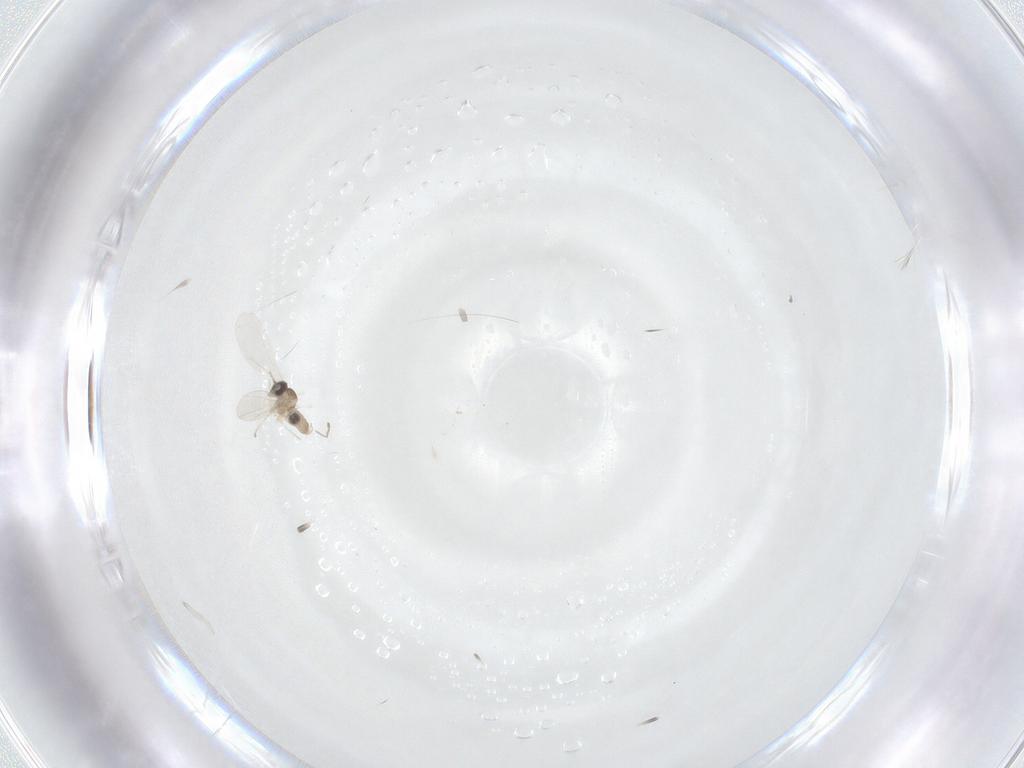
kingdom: Animalia
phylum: Arthropoda
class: Insecta
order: Diptera
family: Cecidomyiidae
